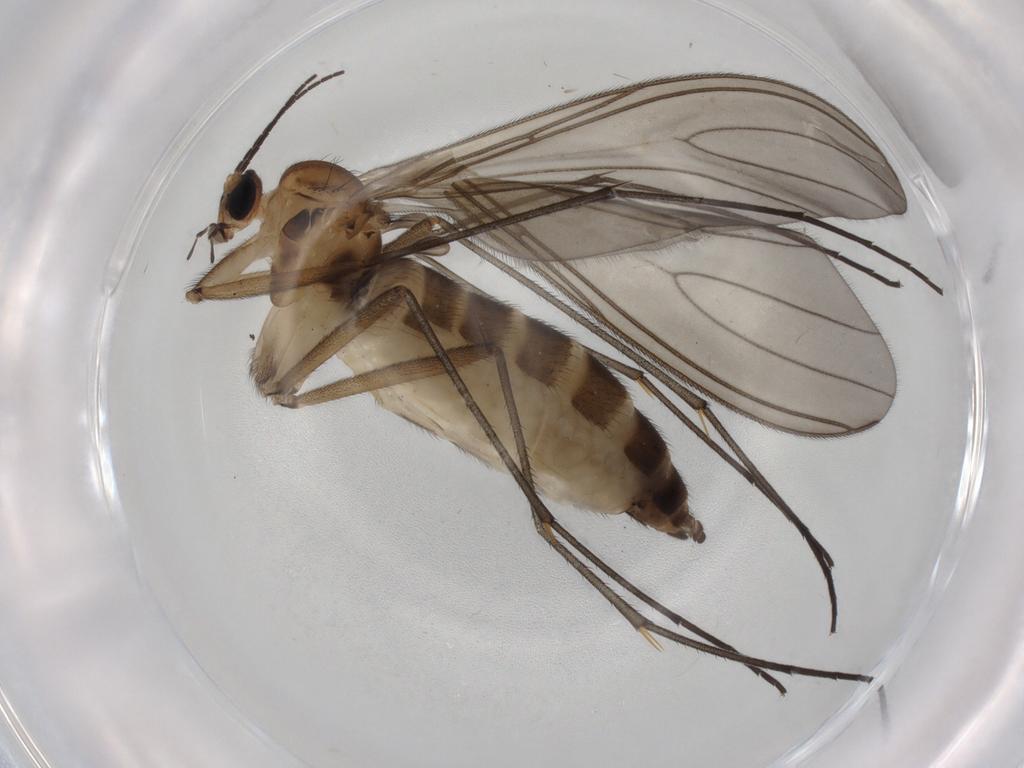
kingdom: Animalia
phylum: Arthropoda
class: Insecta
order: Diptera
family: Sciaridae
